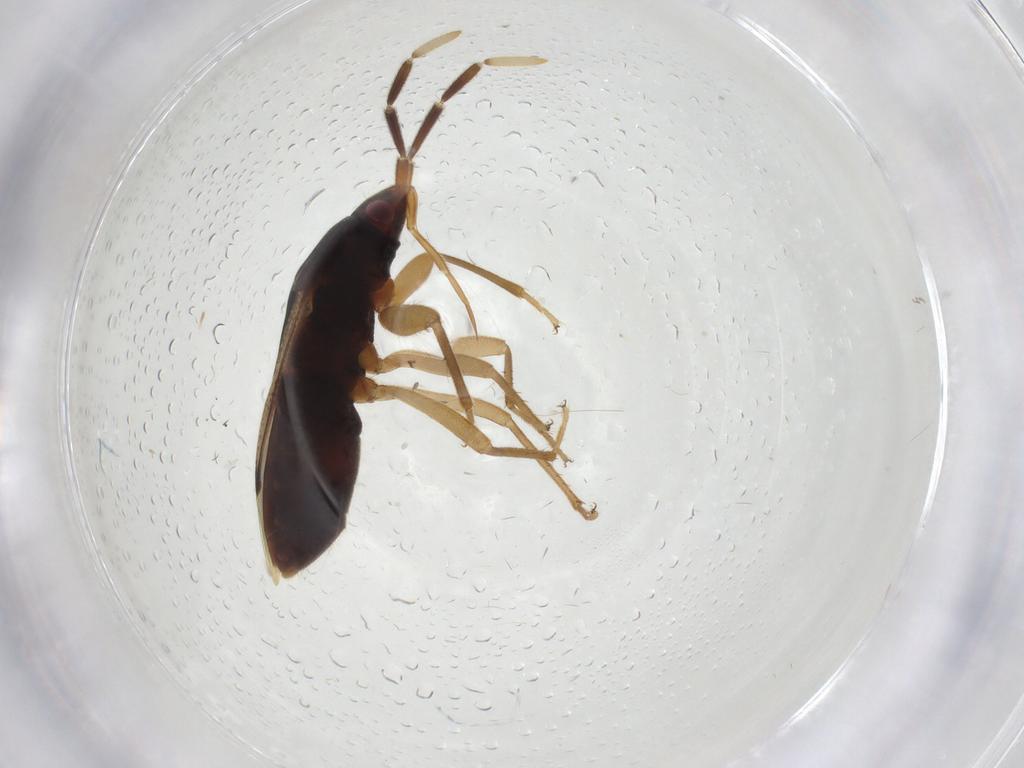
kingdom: Animalia
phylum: Arthropoda
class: Insecta
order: Hemiptera
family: Rhyparochromidae
